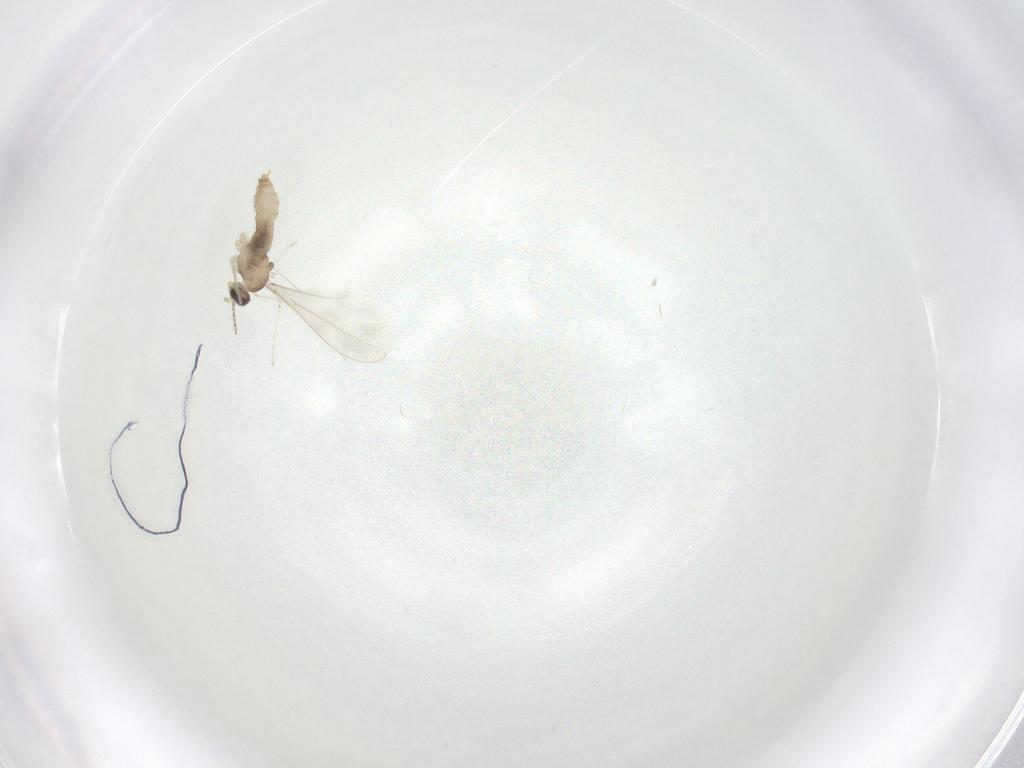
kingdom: Animalia
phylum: Arthropoda
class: Insecta
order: Diptera
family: Cecidomyiidae
